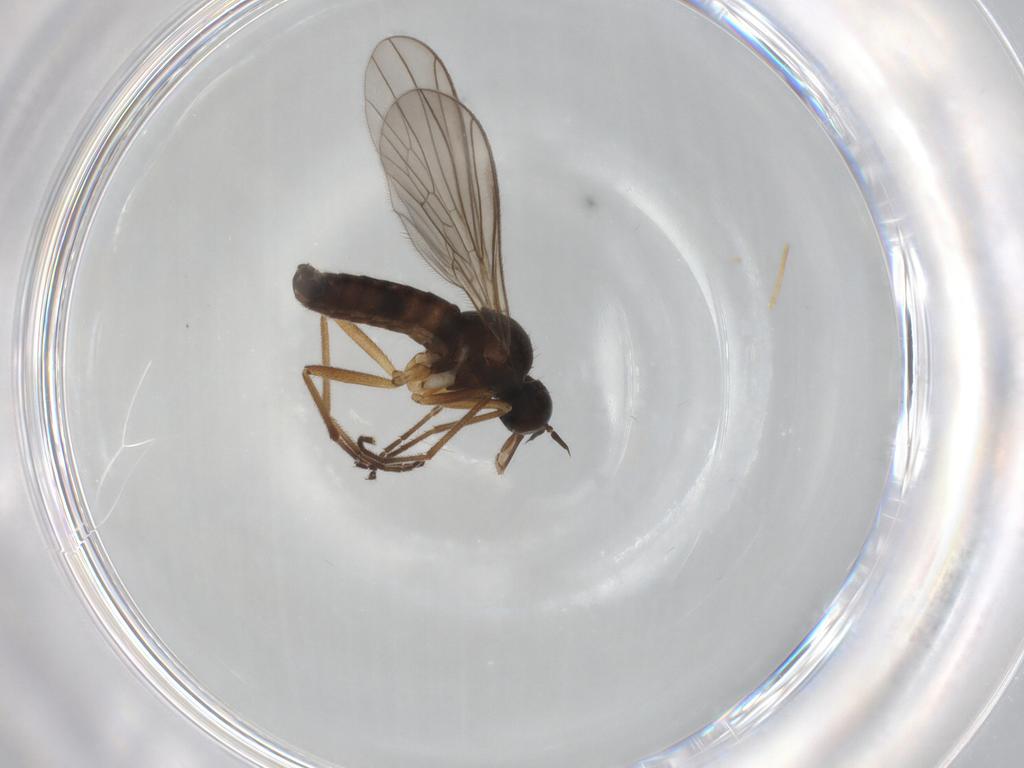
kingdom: Animalia
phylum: Arthropoda
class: Insecta
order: Diptera
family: Empididae
